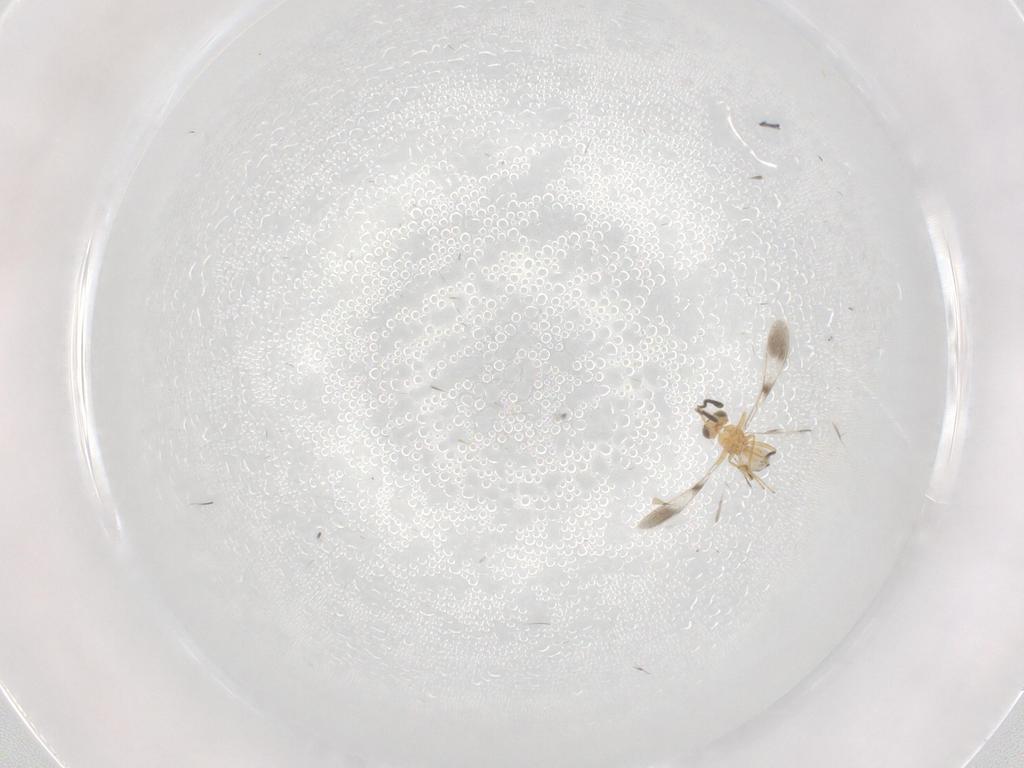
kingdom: Animalia
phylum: Arthropoda
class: Insecta
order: Hymenoptera
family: Mymaridae
